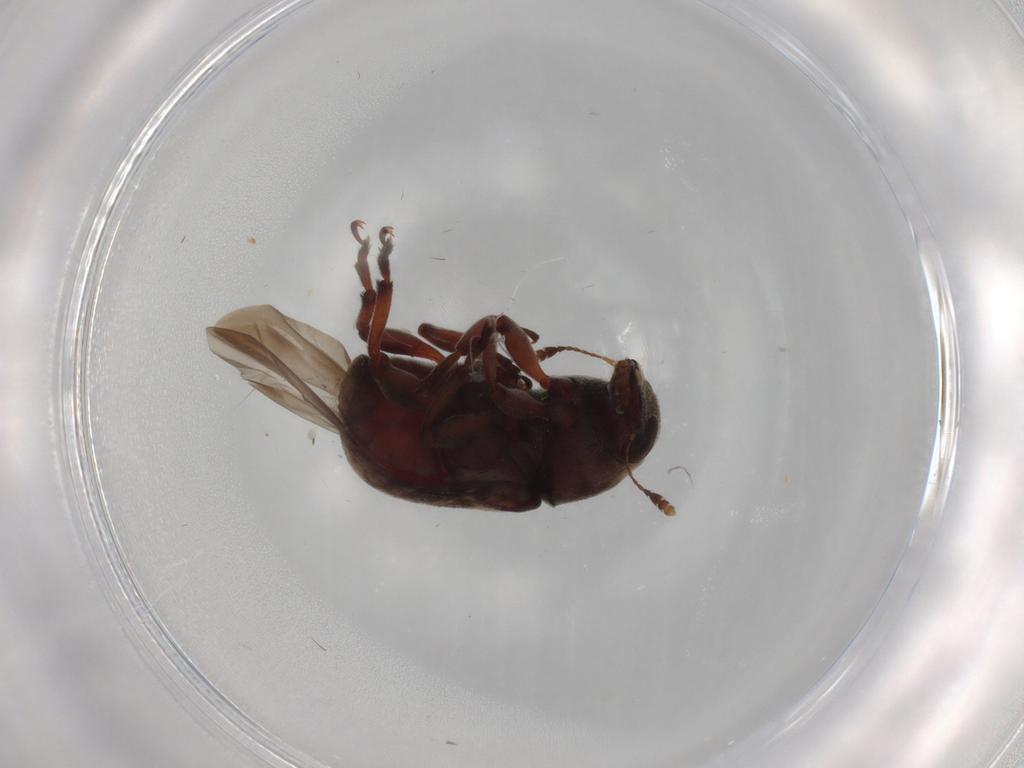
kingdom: Animalia
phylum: Arthropoda
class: Insecta
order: Coleoptera
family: Anthribidae
